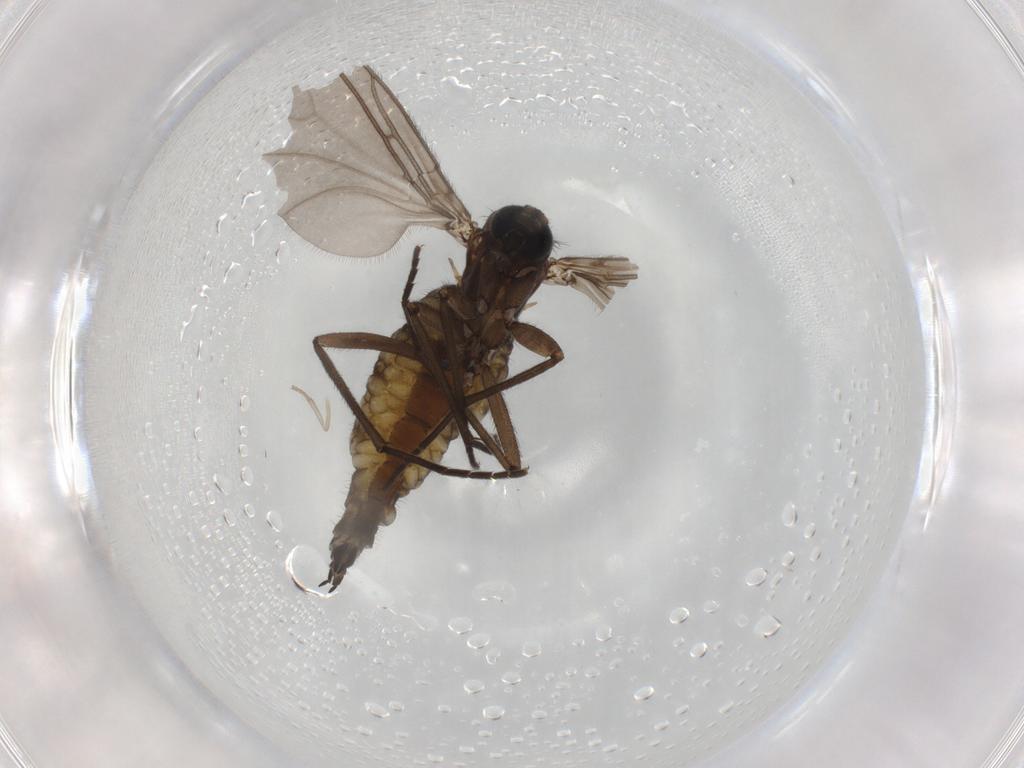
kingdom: Animalia
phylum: Arthropoda
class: Insecta
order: Diptera
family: Sciaridae
